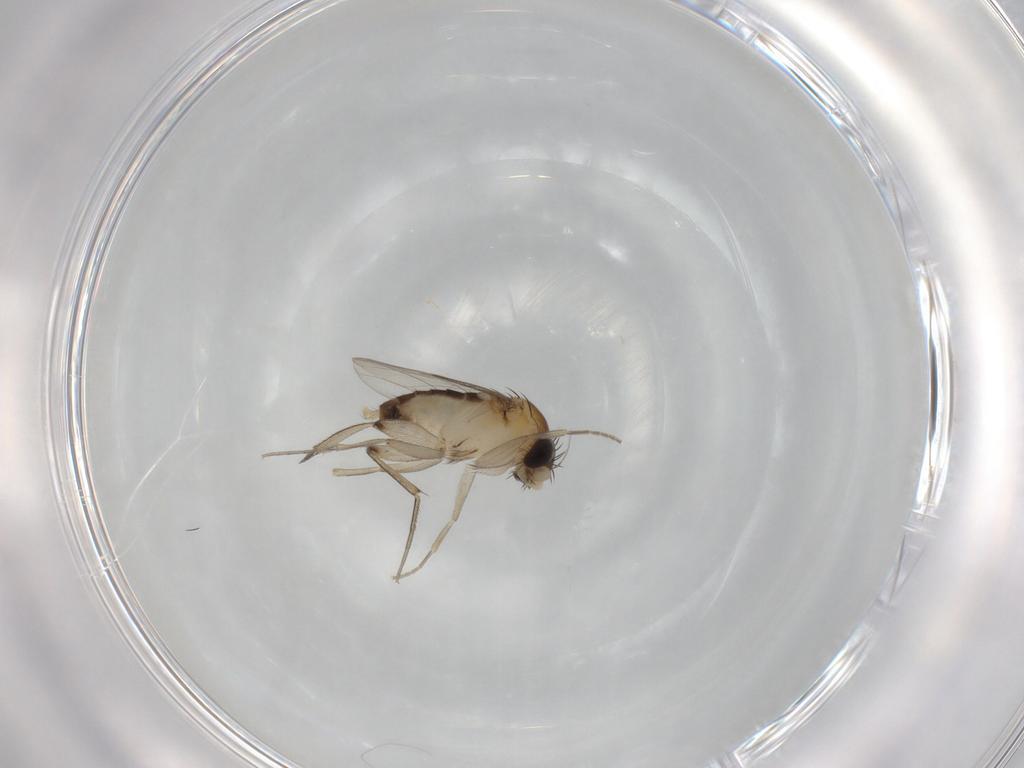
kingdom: Animalia
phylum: Arthropoda
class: Insecta
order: Diptera
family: Phoridae
